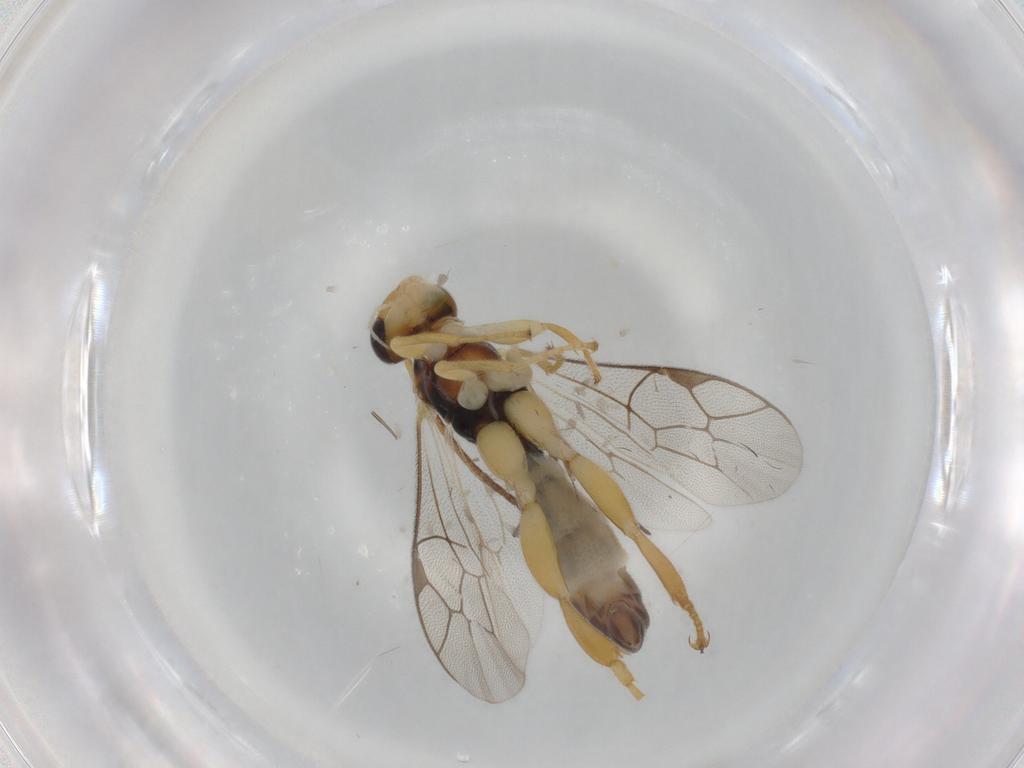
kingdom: Animalia
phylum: Arthropoda
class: Insecta
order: Hymenoptera
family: Ichneumonidae
